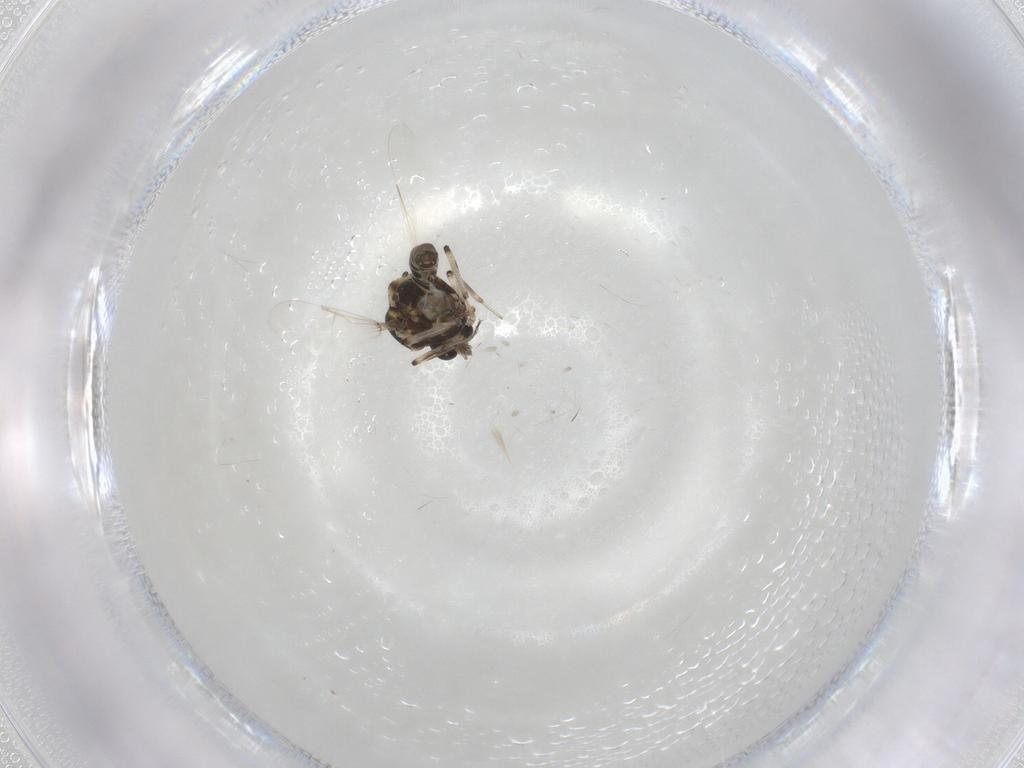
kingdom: Animalia
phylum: Arthropoda
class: Insecta
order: Diptera
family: Ceratopogonidae
